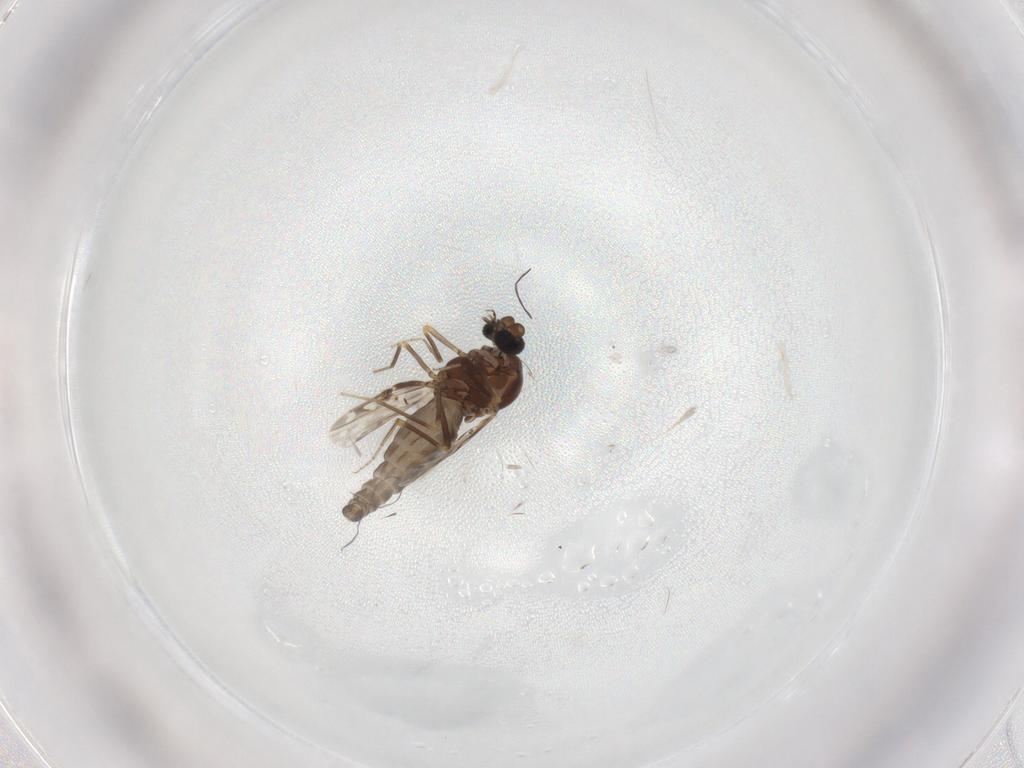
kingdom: Animalia
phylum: Arthropoda
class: Insecta
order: Diptera
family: Ceratopogonidae
